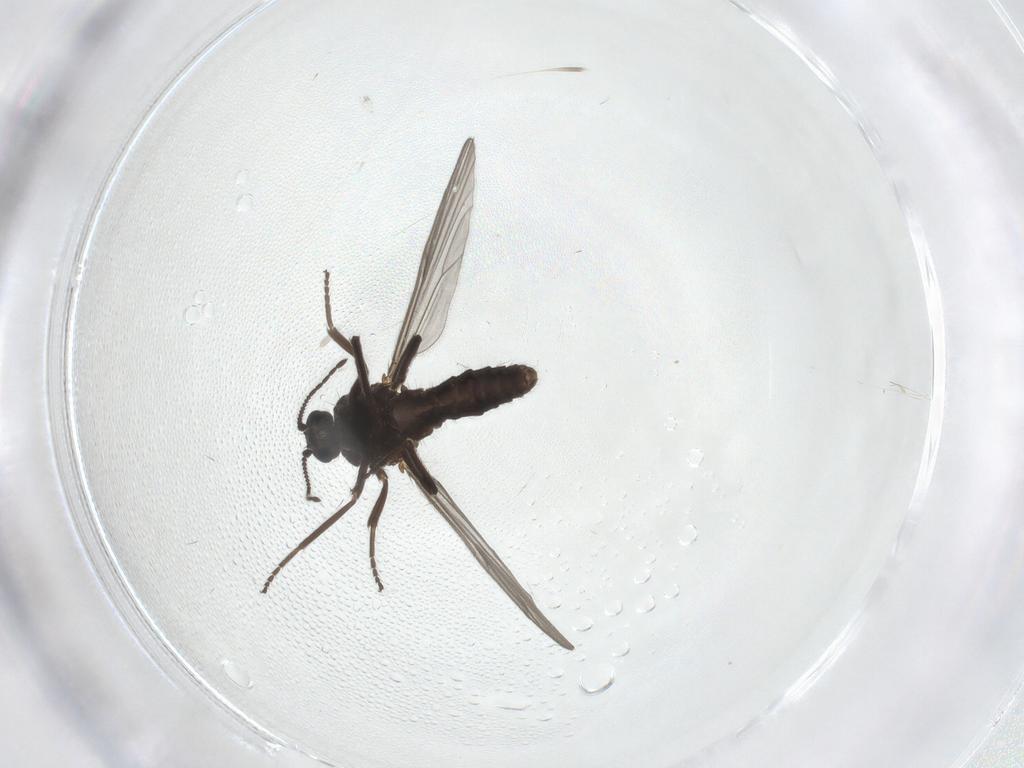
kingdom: Animalia
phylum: Arthropoda
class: Insecta
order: Diptera
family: Ceratopogonidae
